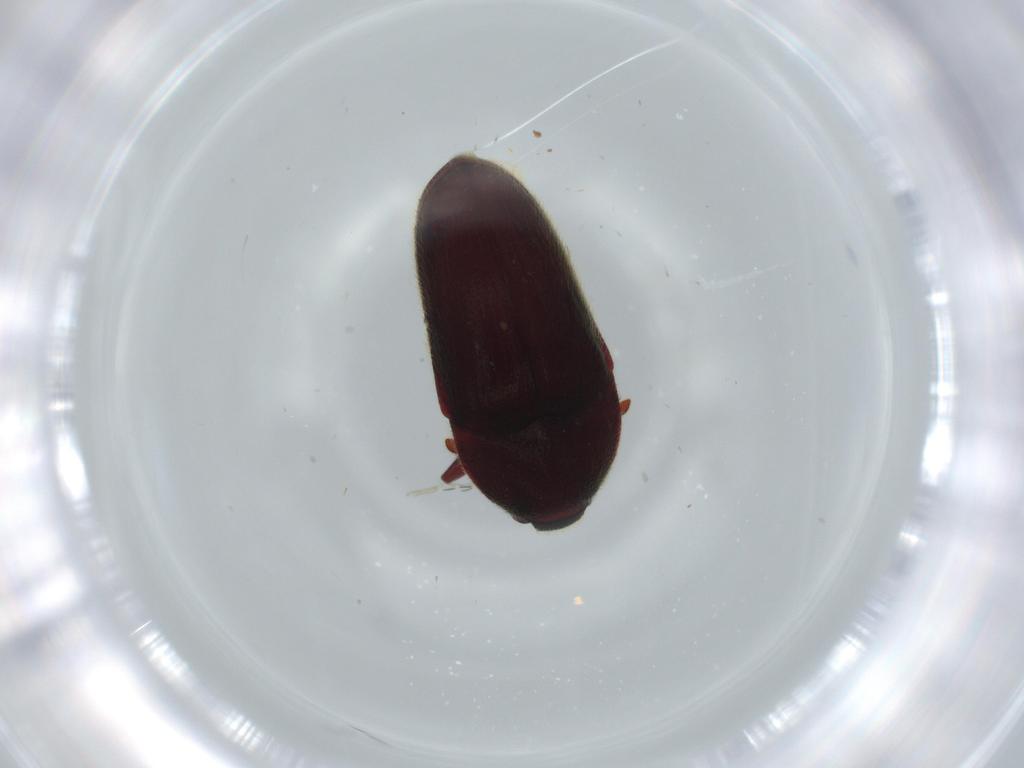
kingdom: Animalia
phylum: Arthropoda
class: Insecta
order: Coleoptera
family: Throscidae
